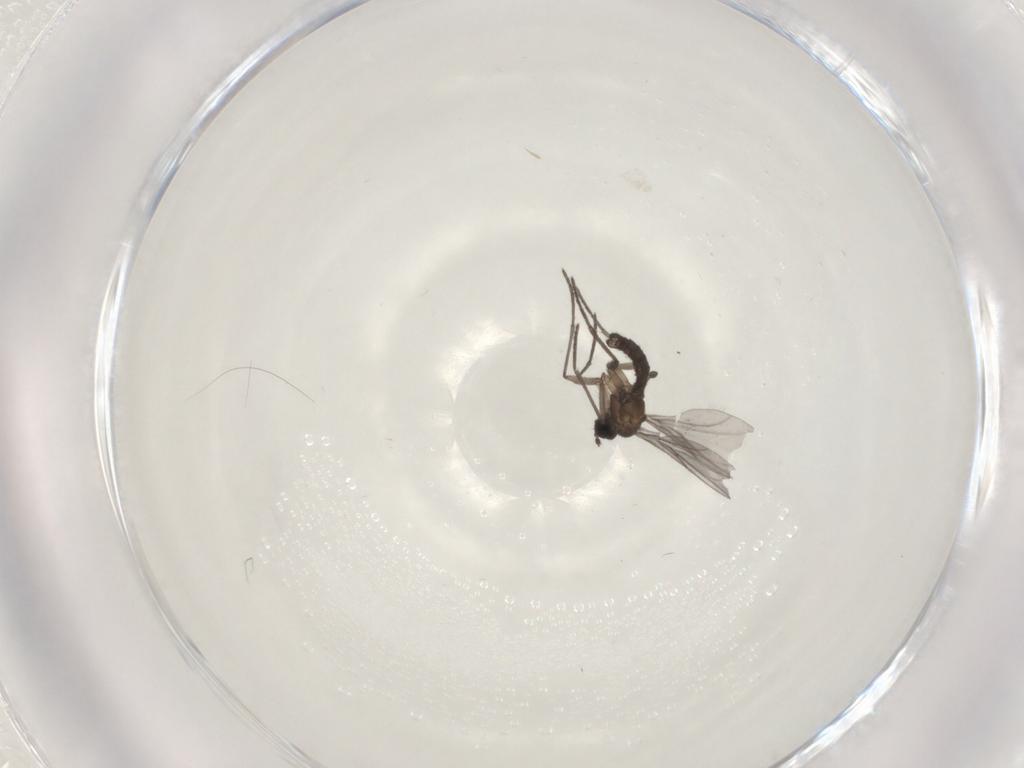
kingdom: Animalia
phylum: Arthropoda
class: Insecta
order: Diptera
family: Sciaridae
